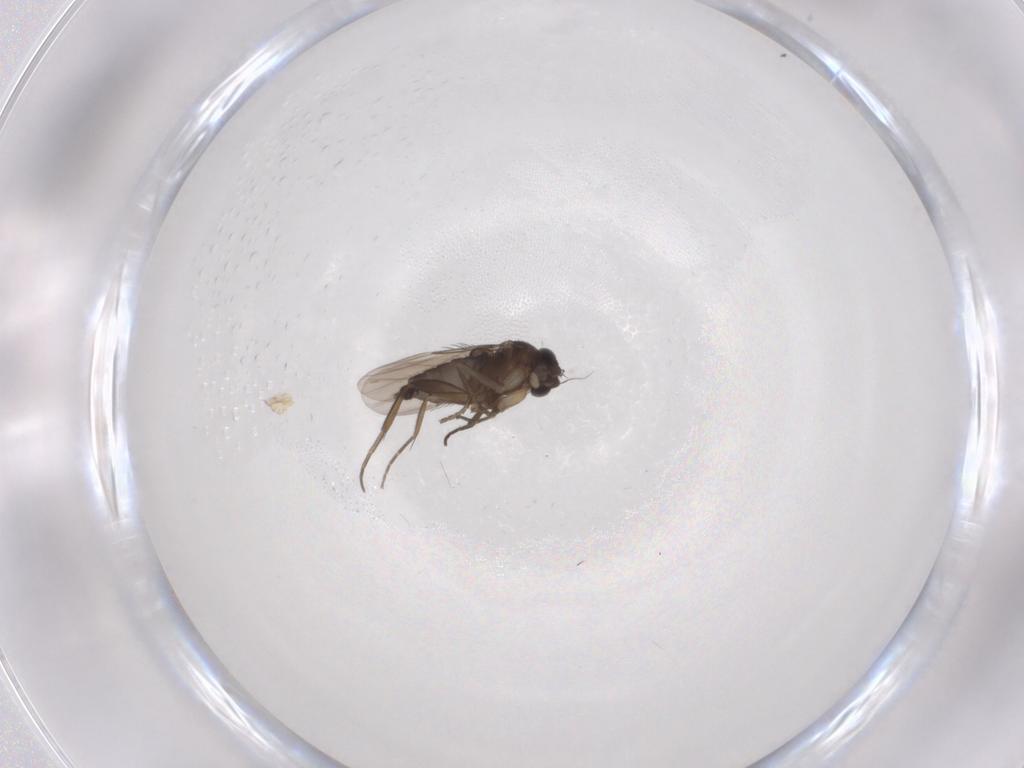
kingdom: Animalia
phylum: Arthropoda
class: Insecta
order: Diptera
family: Phoridae
